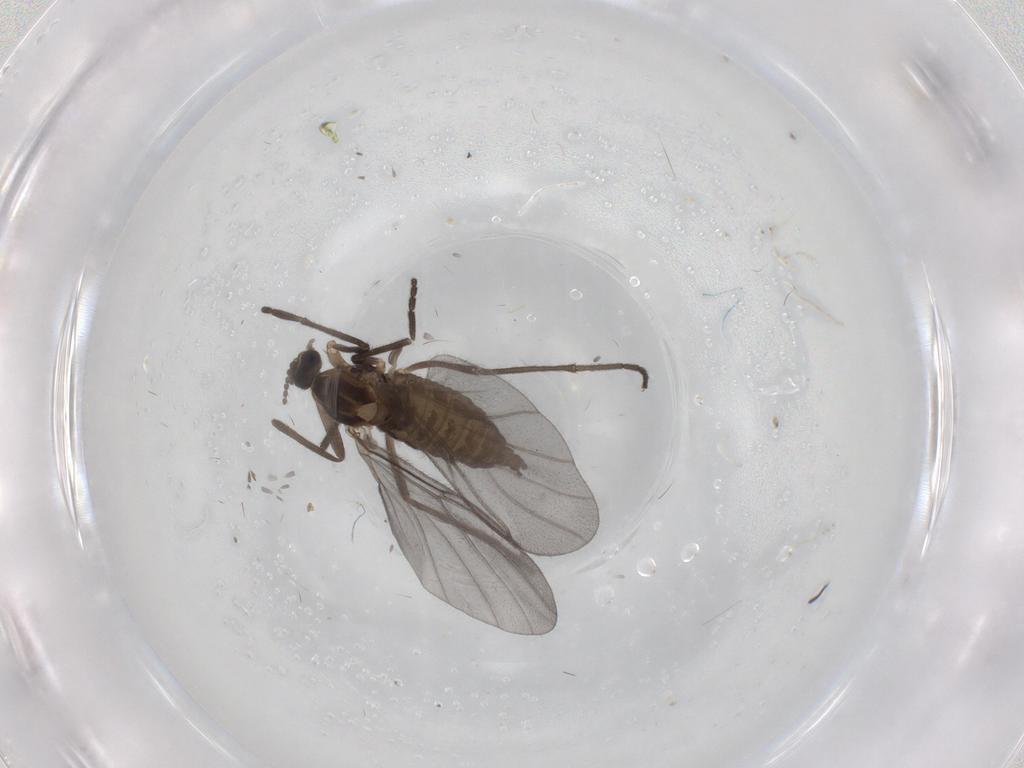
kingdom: Animalia
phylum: Arthropoda
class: Insecta
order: Diptera
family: Cecidomyiidae
